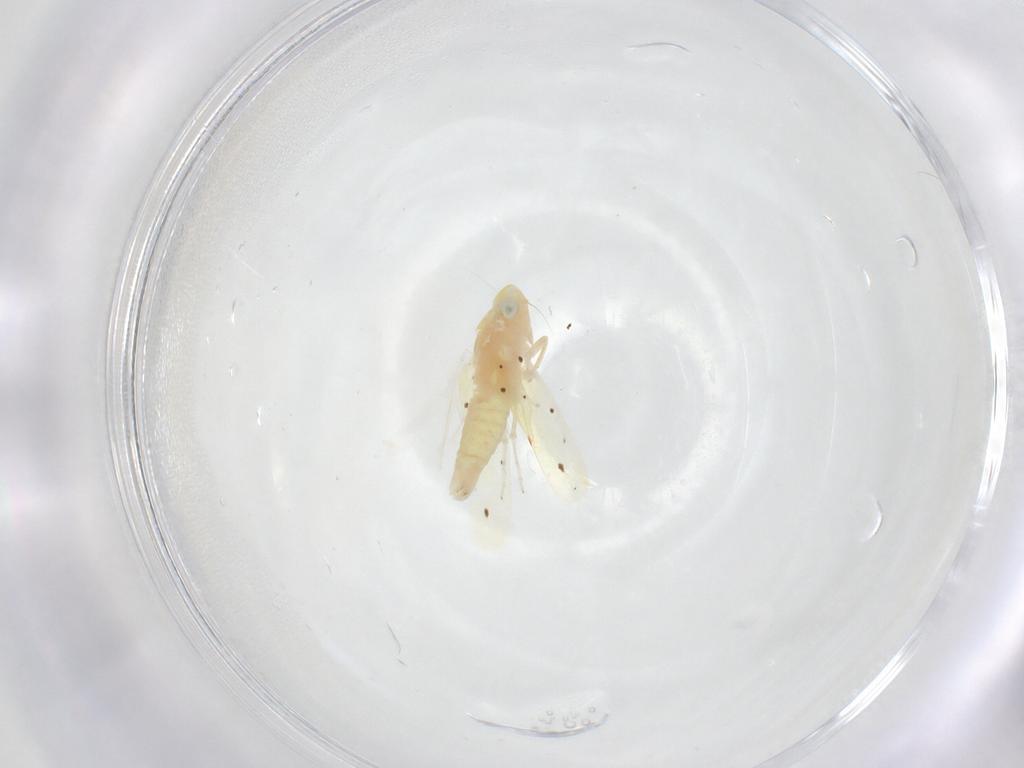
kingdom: Animalia
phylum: Arthropoda
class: Insecta
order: Hemiptera
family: Cicadellidae
